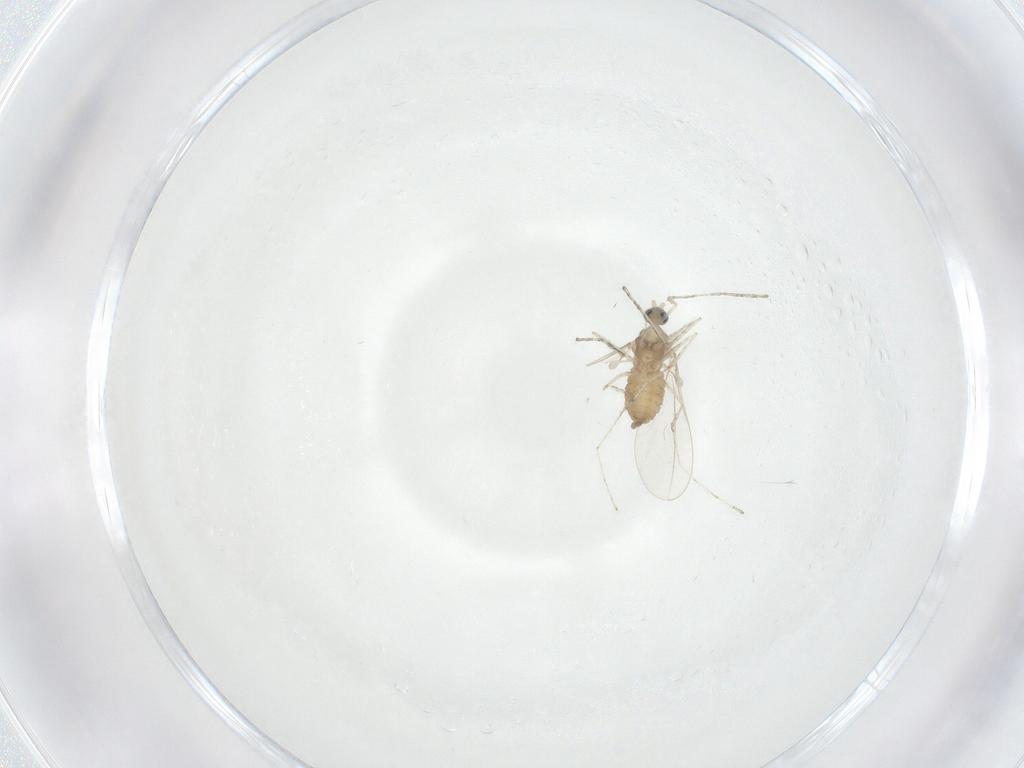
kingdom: Animalia
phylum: Arthropoda
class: Insecta
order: Diptera
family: Cecidomyiidae
